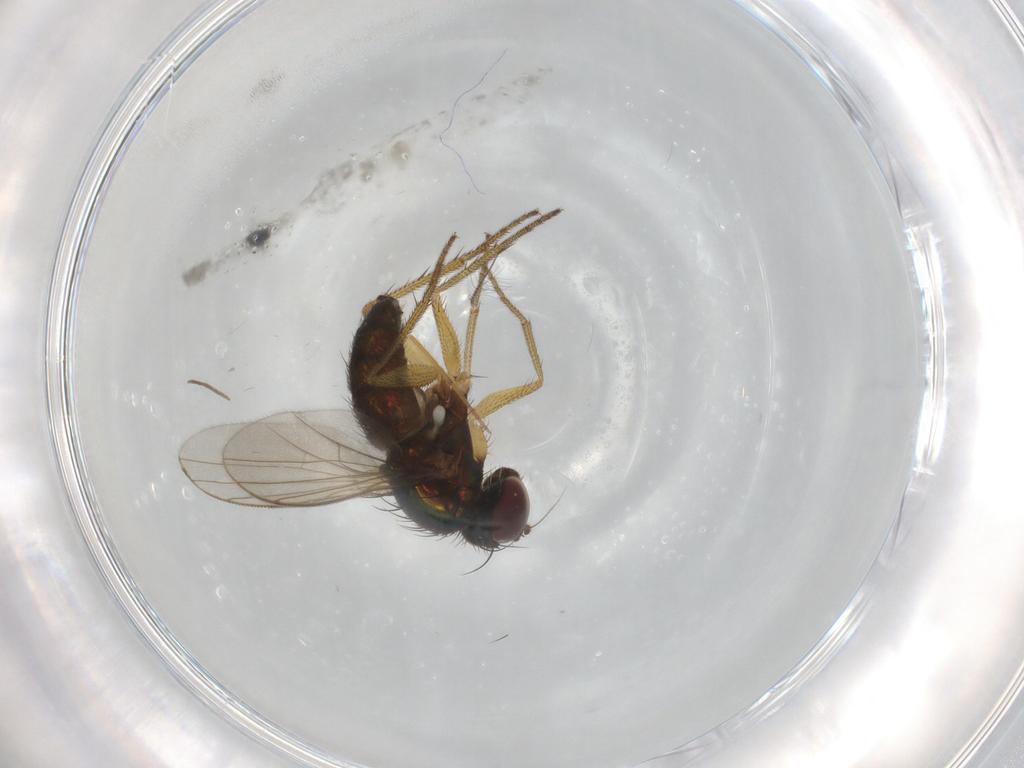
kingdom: Animalia
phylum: Arthropoda
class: Insecta
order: Diptera
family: Dolichopodidae
